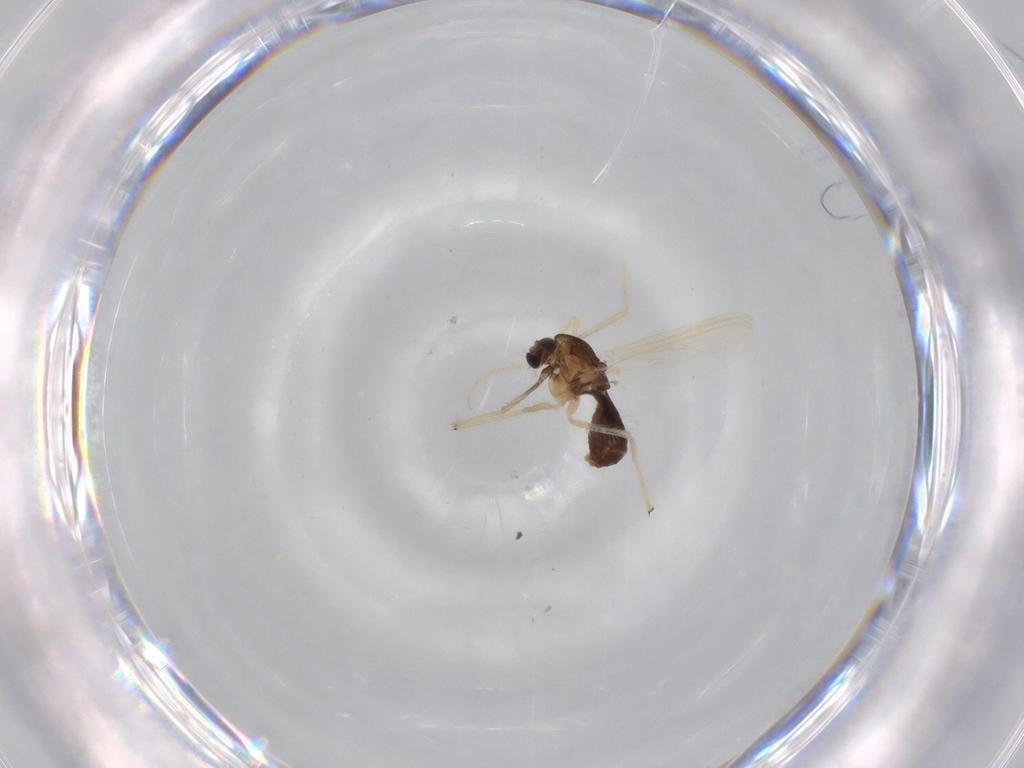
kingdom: Animalia
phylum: Arthropoda
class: Insecta
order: Diptera
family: Chironomidae
